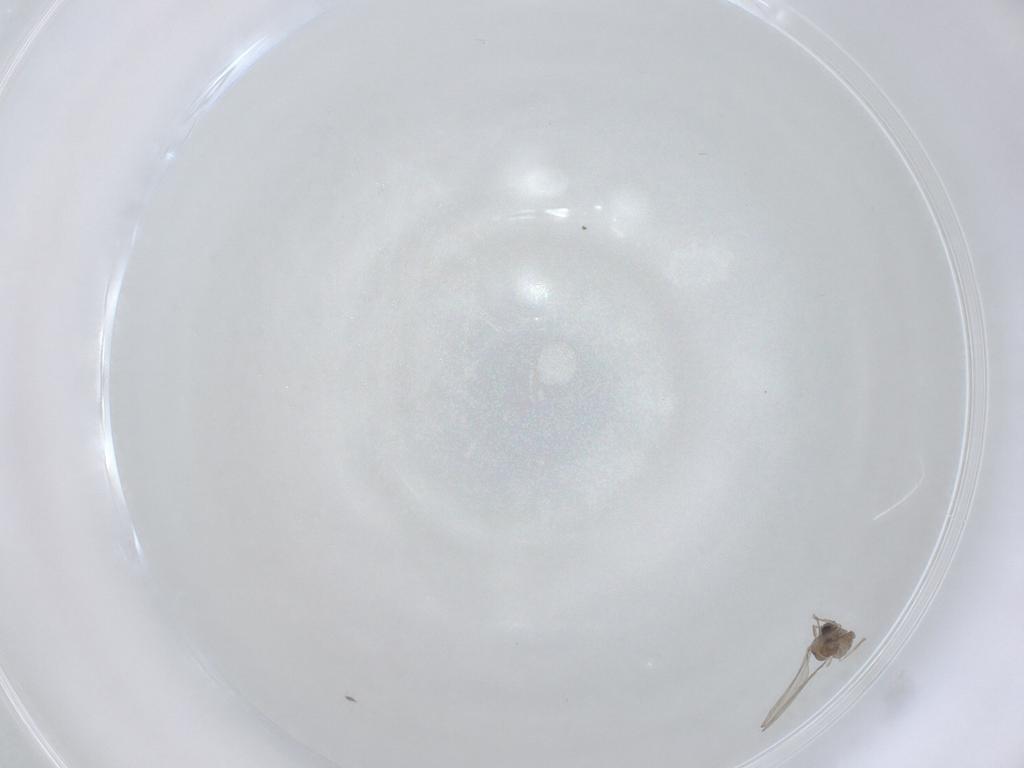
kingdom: Animalia
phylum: Arthropoda
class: Insecta
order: Diptera
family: Cecidomyiidae
